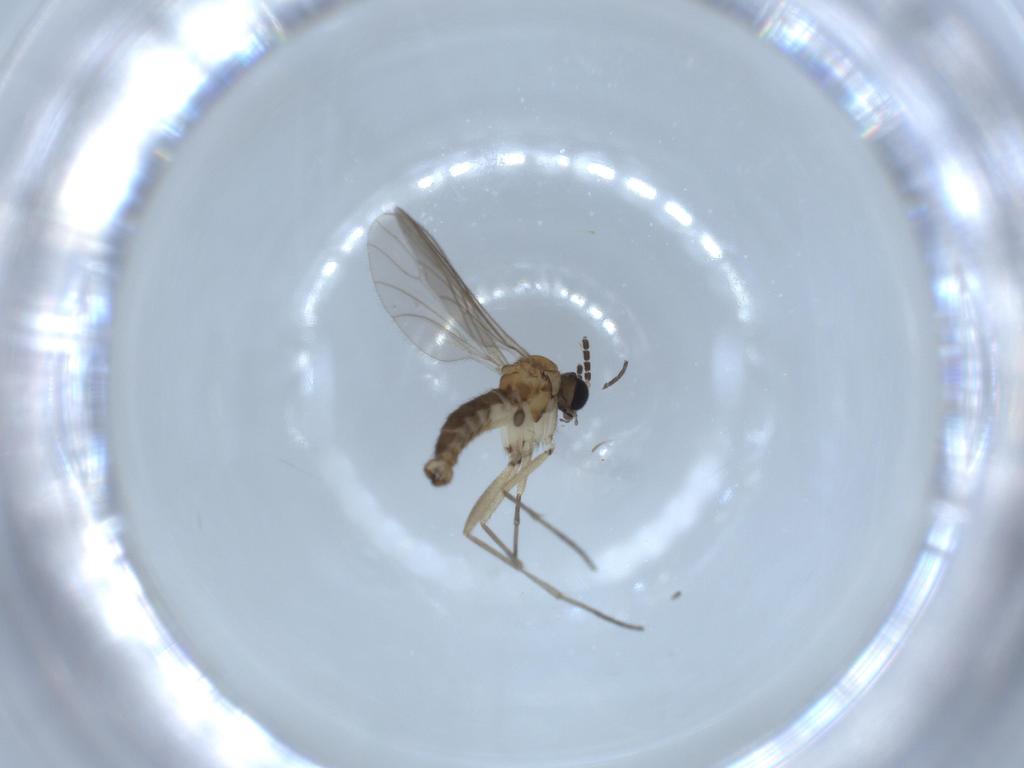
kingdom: Animalia
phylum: Arthropoda
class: Insecta
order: Diptera
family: Sciaridae
